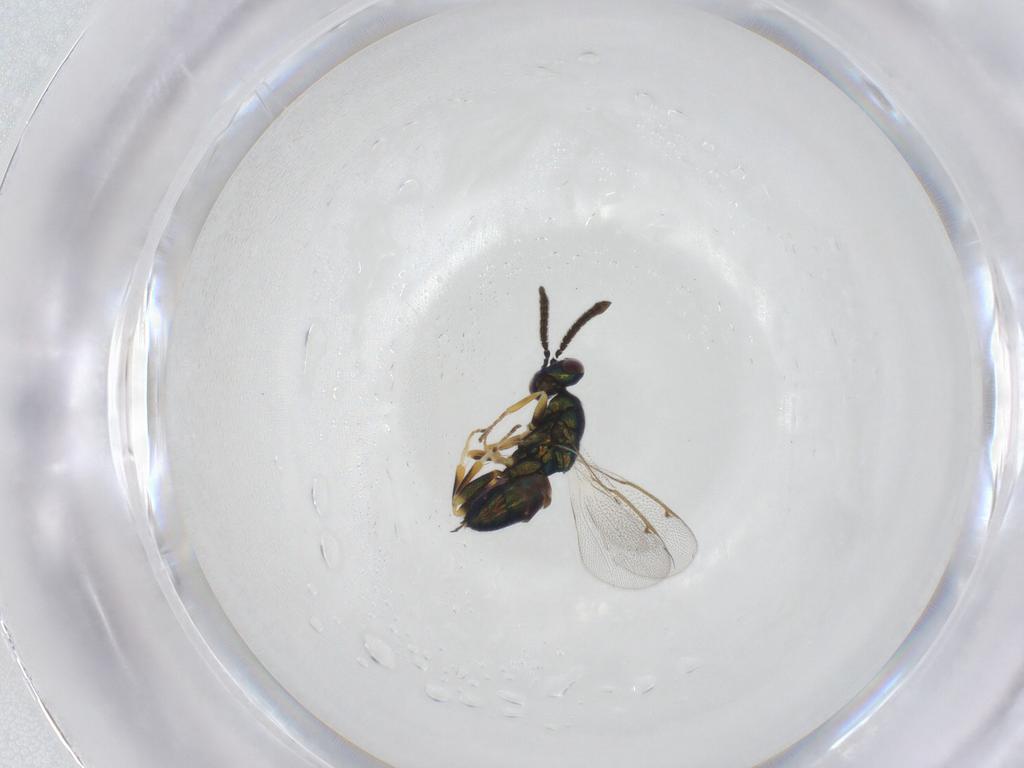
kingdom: Animalia
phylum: Arthropoda
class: Insecta
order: Hymenoptera
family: Torymidae
